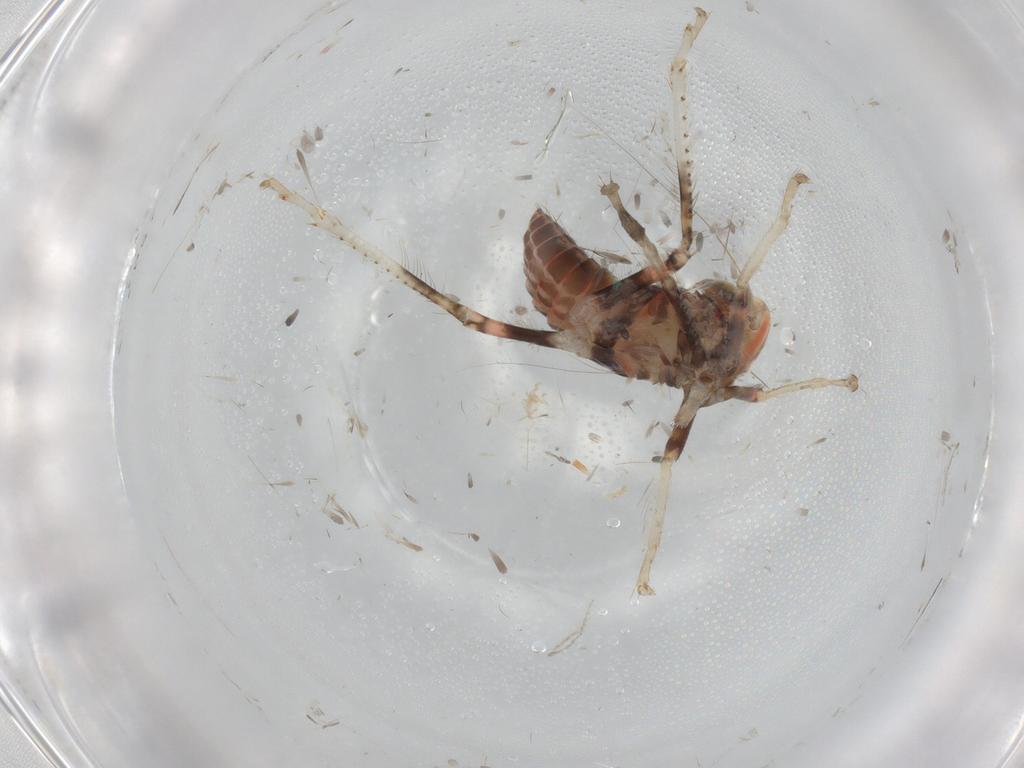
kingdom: Animalia
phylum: Arthropoda
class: Insecta
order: Hemiptera
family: Cicadellidae
